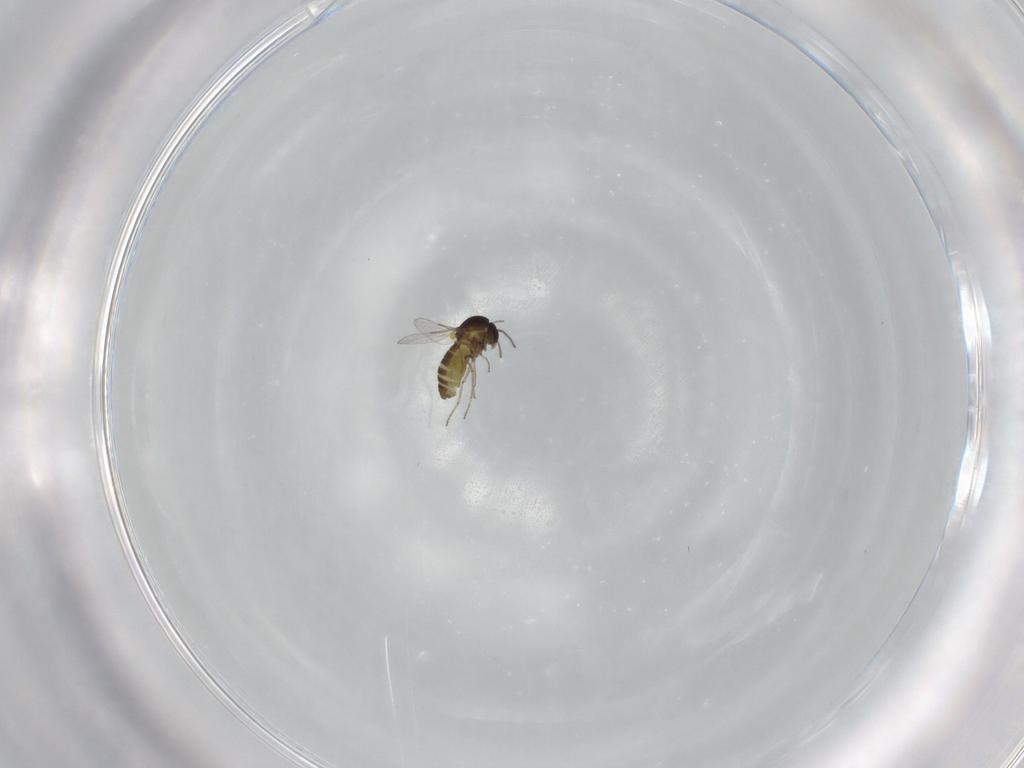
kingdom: Animalia
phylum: Arthropoda
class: Insecta
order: Diptera
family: Ceratopogonidae
